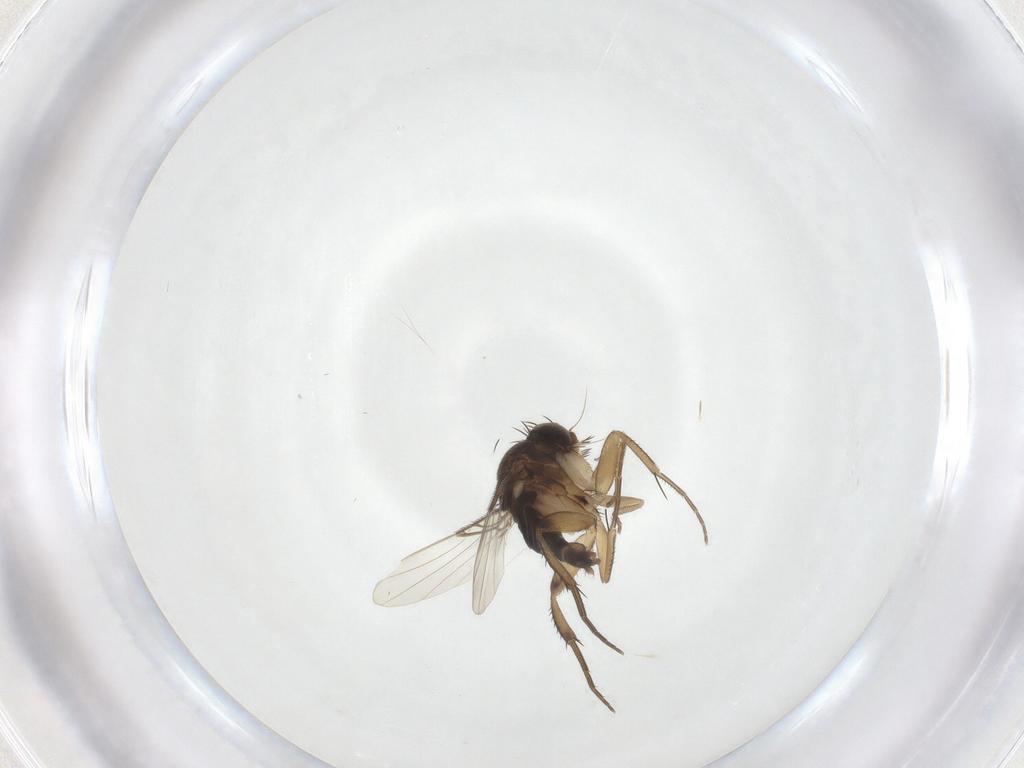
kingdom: Animalia
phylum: Arthropoda
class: Insecta
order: Diptera
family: Phoridae
